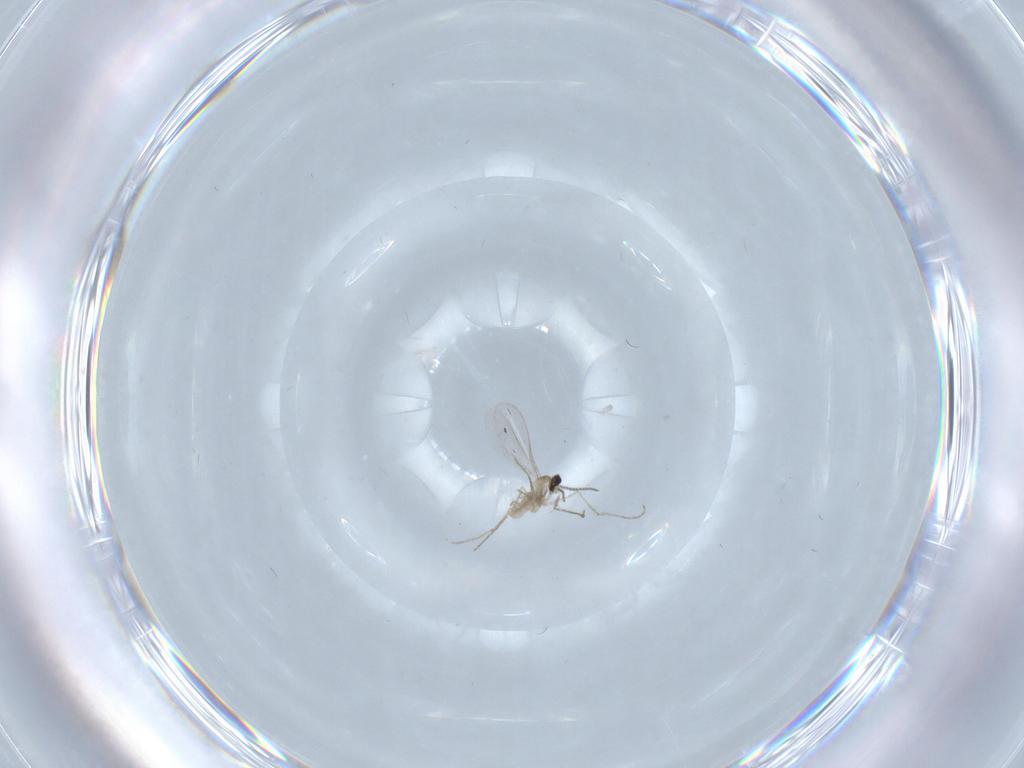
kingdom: Animalia
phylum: Arthropoda
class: Insecta
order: Diptera
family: Cecidomyiidae
